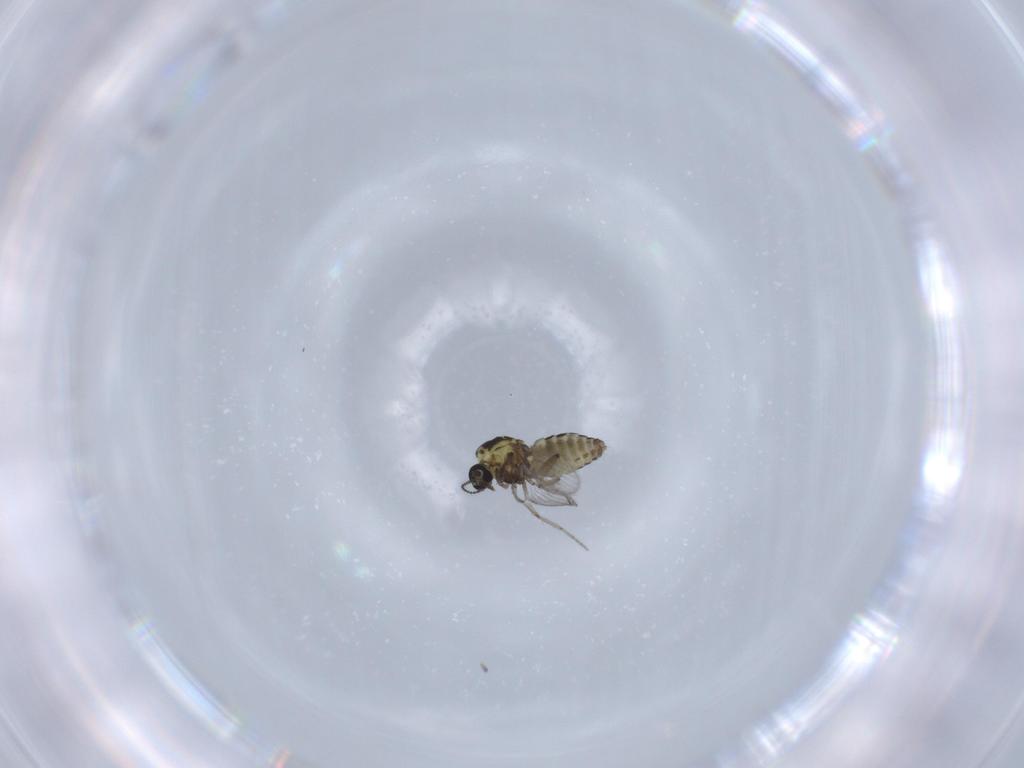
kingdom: Animalia
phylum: Arthropoda
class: Insecta
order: Diptera
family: Ceratopogonidae
